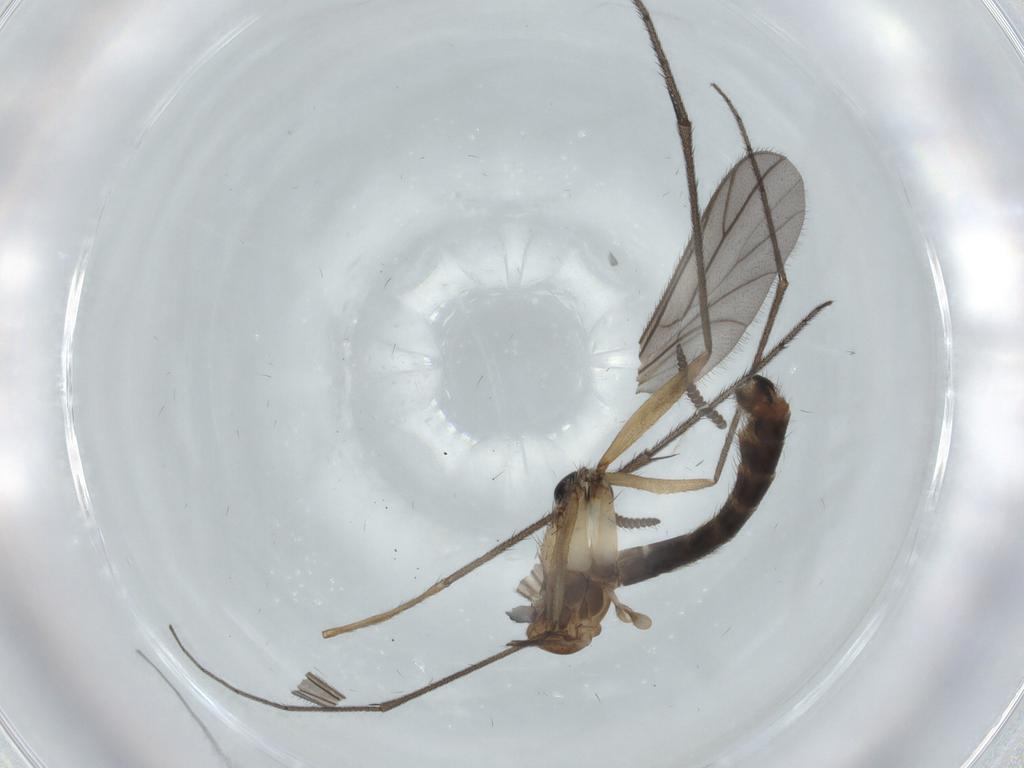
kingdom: Animalia
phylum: Arthropoda
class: Insecta
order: Diptera
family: Ditomyiidae
